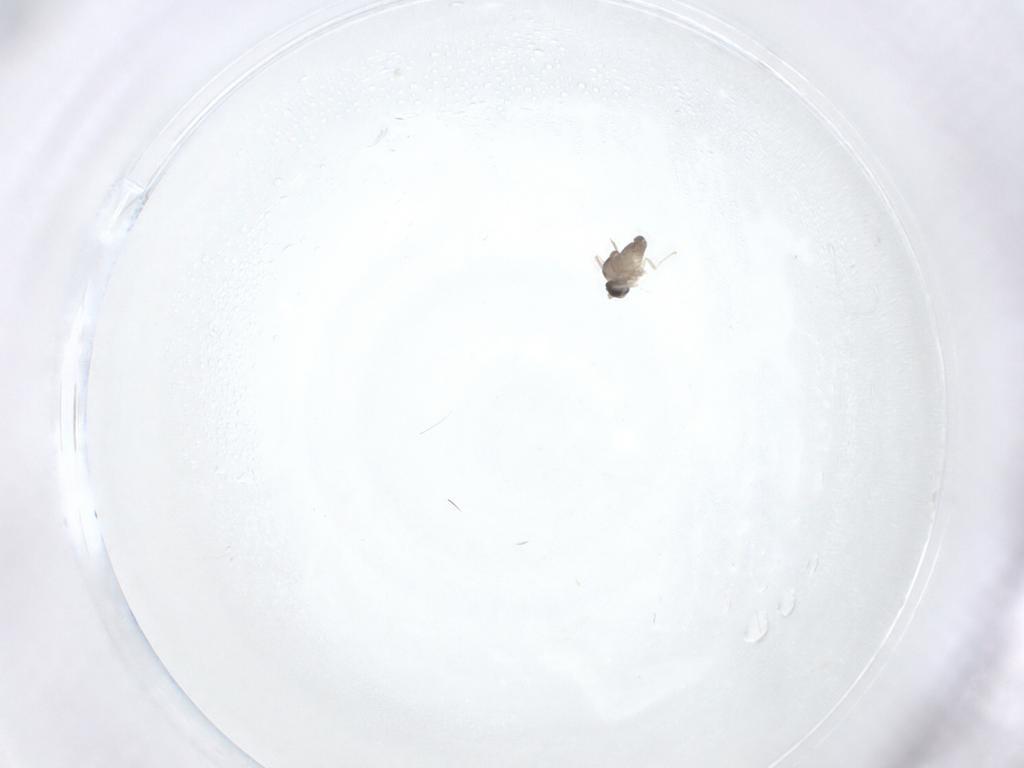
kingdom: Animalia
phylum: Arthropoda
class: Insecta
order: Diptera
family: Cecidomyiidae
